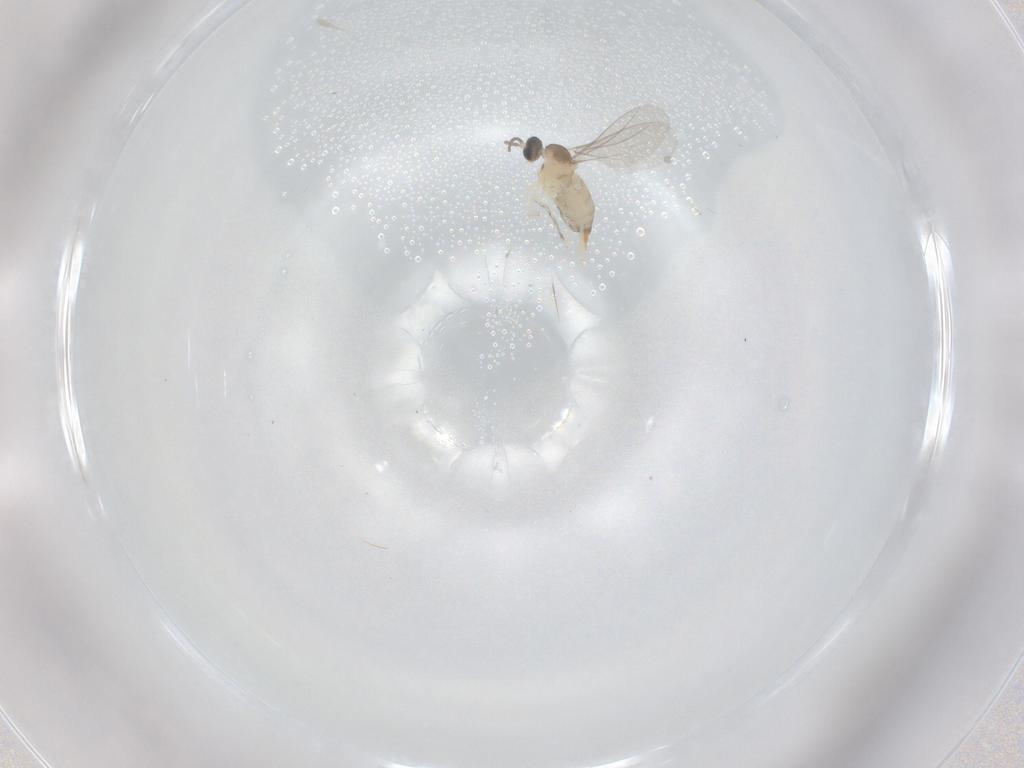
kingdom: Animalia
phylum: Arthropoda
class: Insecta
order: Diptera
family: Cecidomyiidae
